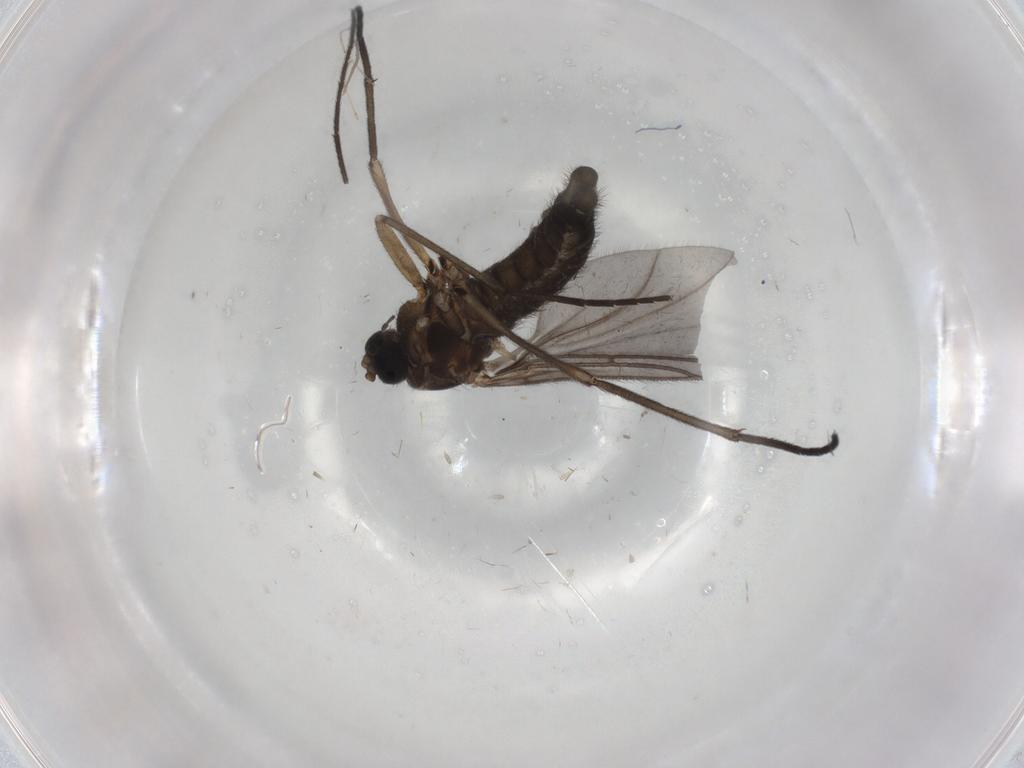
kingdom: Animalia
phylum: Arthropoda
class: Insecta
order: Diptera
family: Sciaridae
